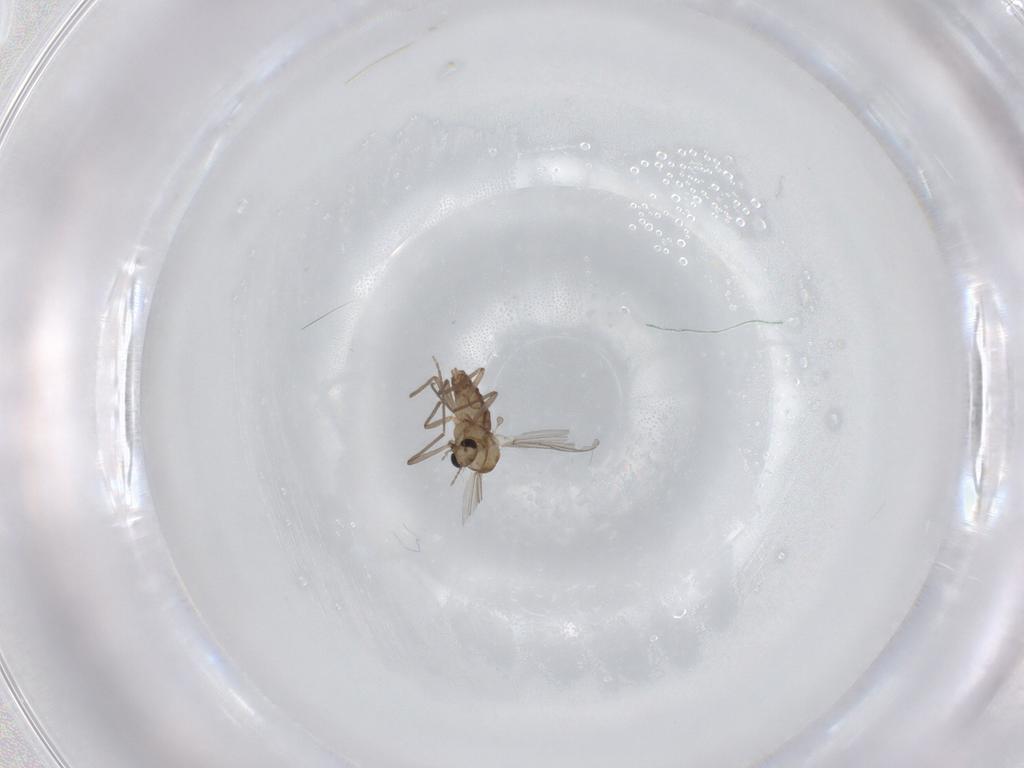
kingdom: Animalia
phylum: Arthropoda
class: Insecta
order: Diptera
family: Chironomidae
